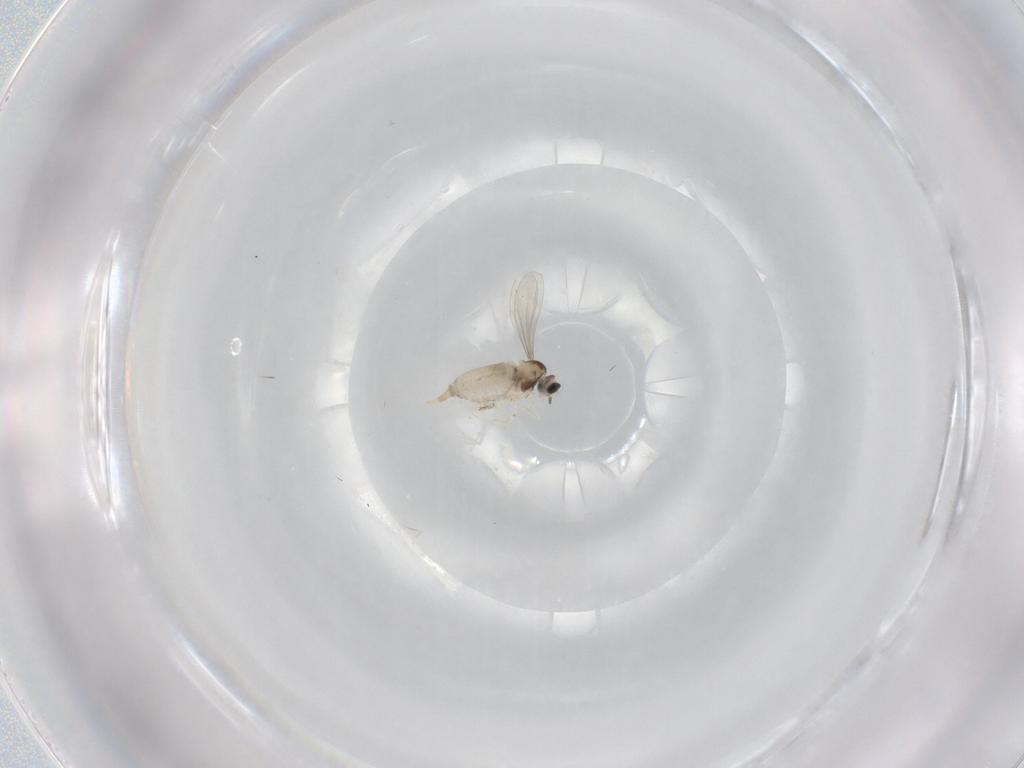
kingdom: Animalia
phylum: Arthropoda
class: Insecta
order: Diptera
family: Cecidomyiidae
